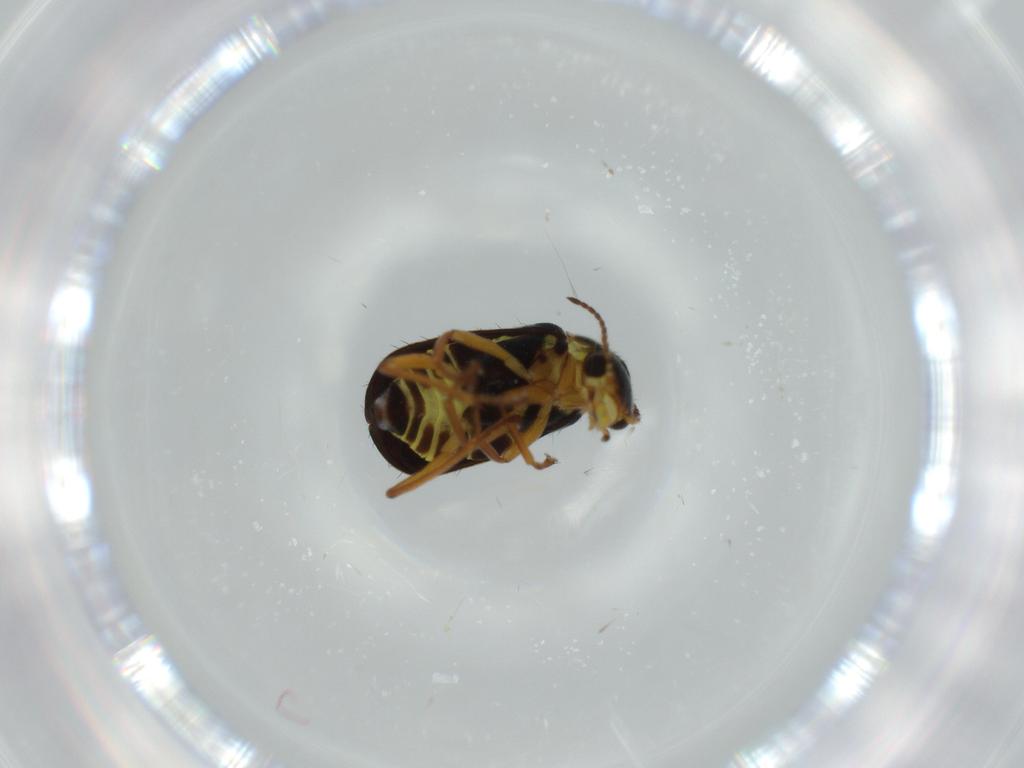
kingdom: Animalia
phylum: Arthropoda
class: Insecta
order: Coleoptera
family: Melyridae
